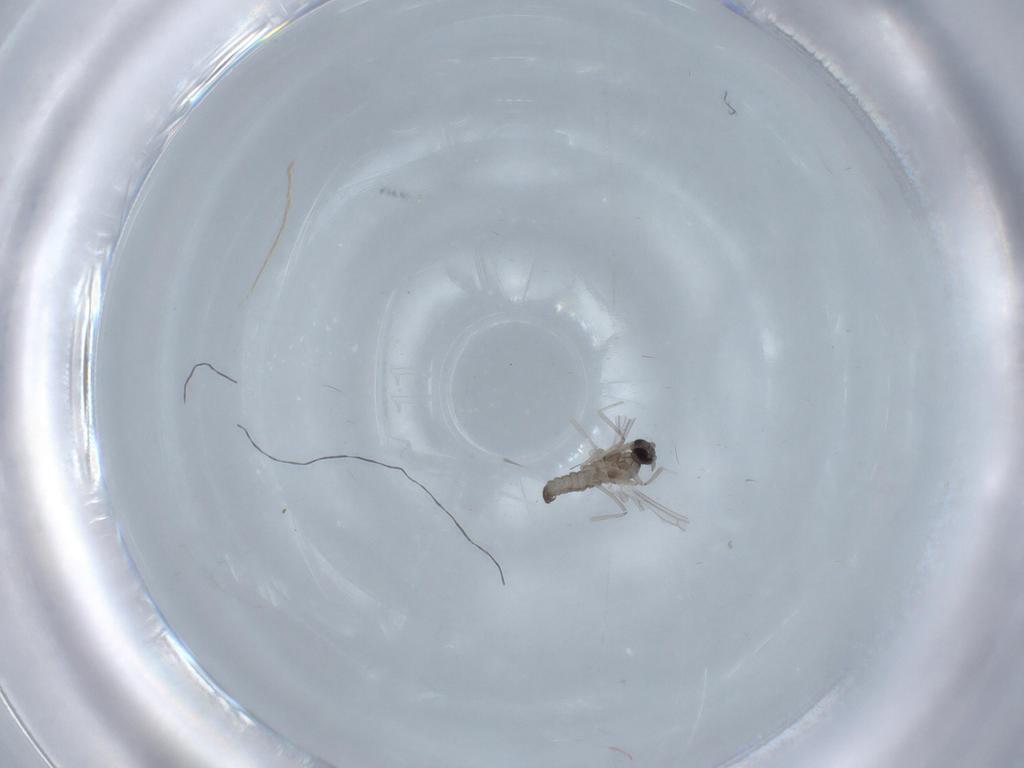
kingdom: Animalia
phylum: Arthropoda
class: Insecta
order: Diptera
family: Cecidomyiidae
